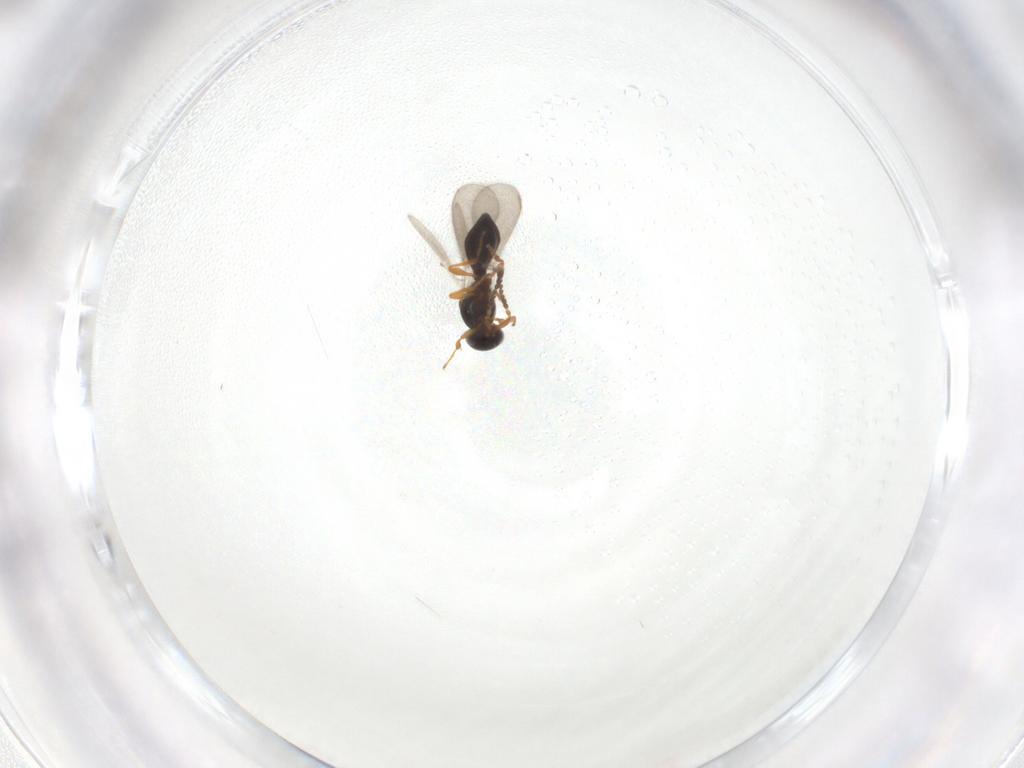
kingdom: Animalia
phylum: Arthropoda
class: Insecta
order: Hymenoptera
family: Platygastridae
